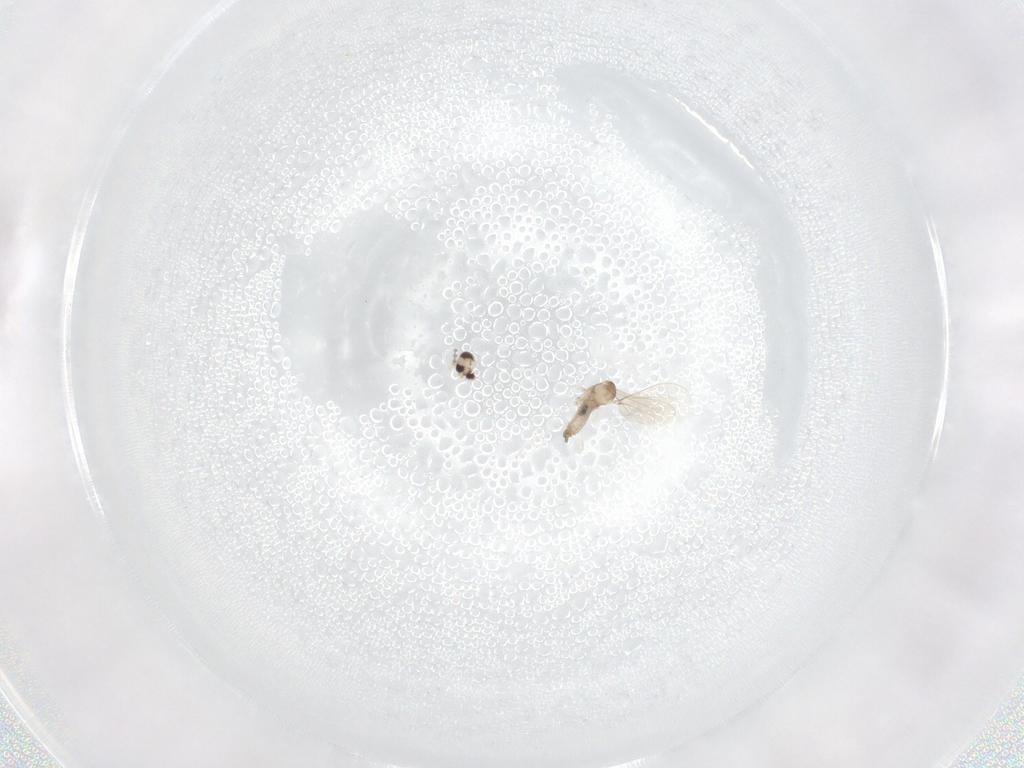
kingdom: Animalia
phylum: Arthropoda
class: Insecta
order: Diptera
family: Cecidomyiidae
